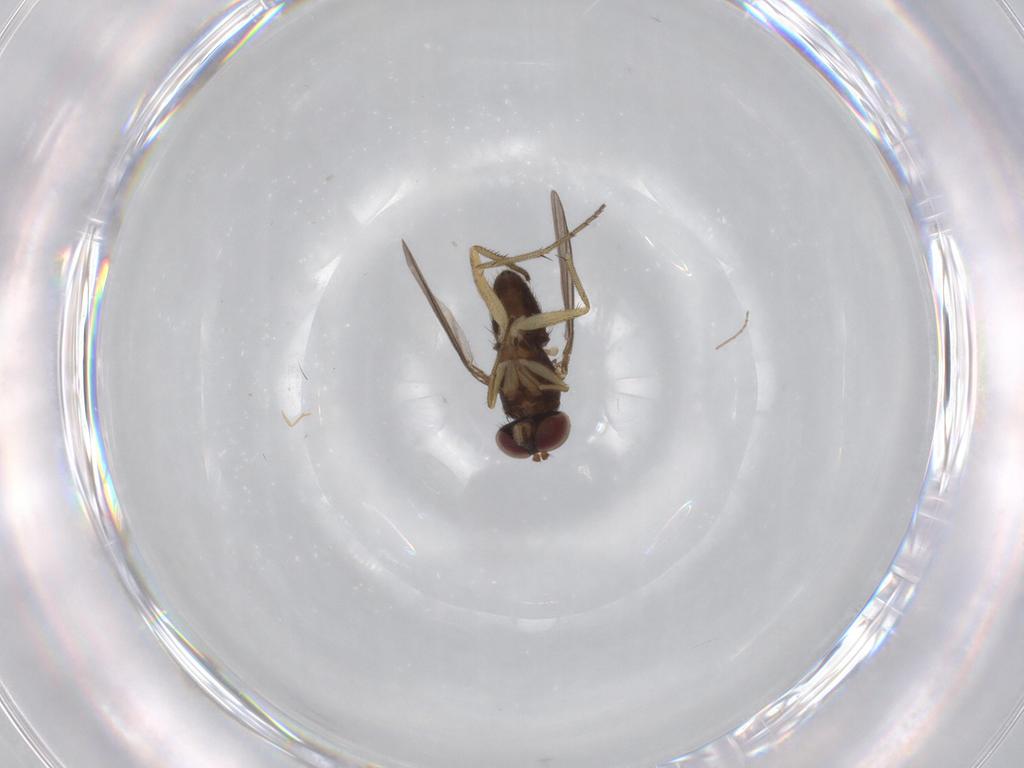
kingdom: Animalia
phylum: Arthropoda
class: Insecta
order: Diptera
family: Dolichopodidae
